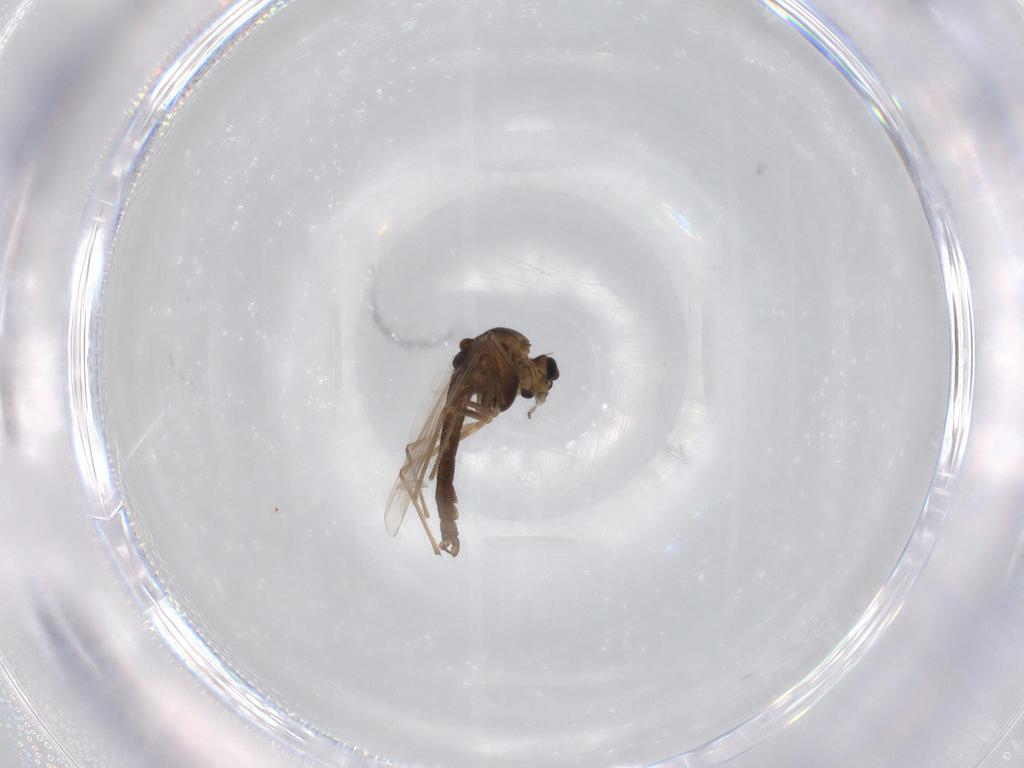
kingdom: Animalia
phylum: Arthropoda
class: Insecta
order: Diptera
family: Chironomidae
